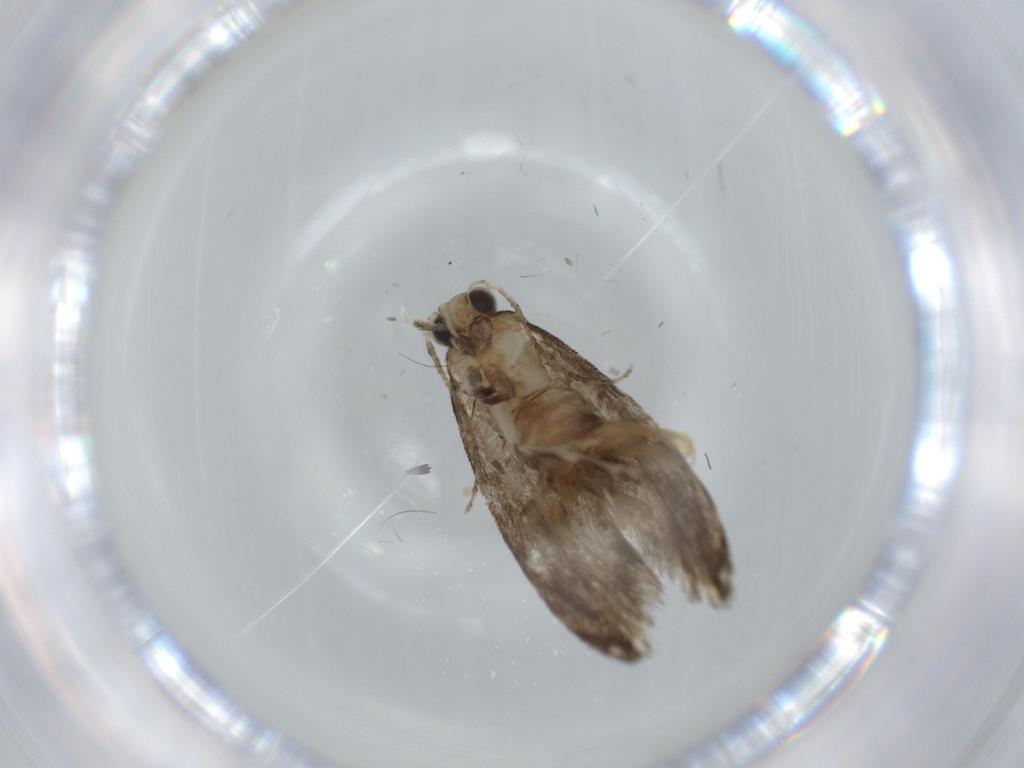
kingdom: Animalia
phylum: Arthropoda
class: Insecta
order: Lepidoptera
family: Tineidae
